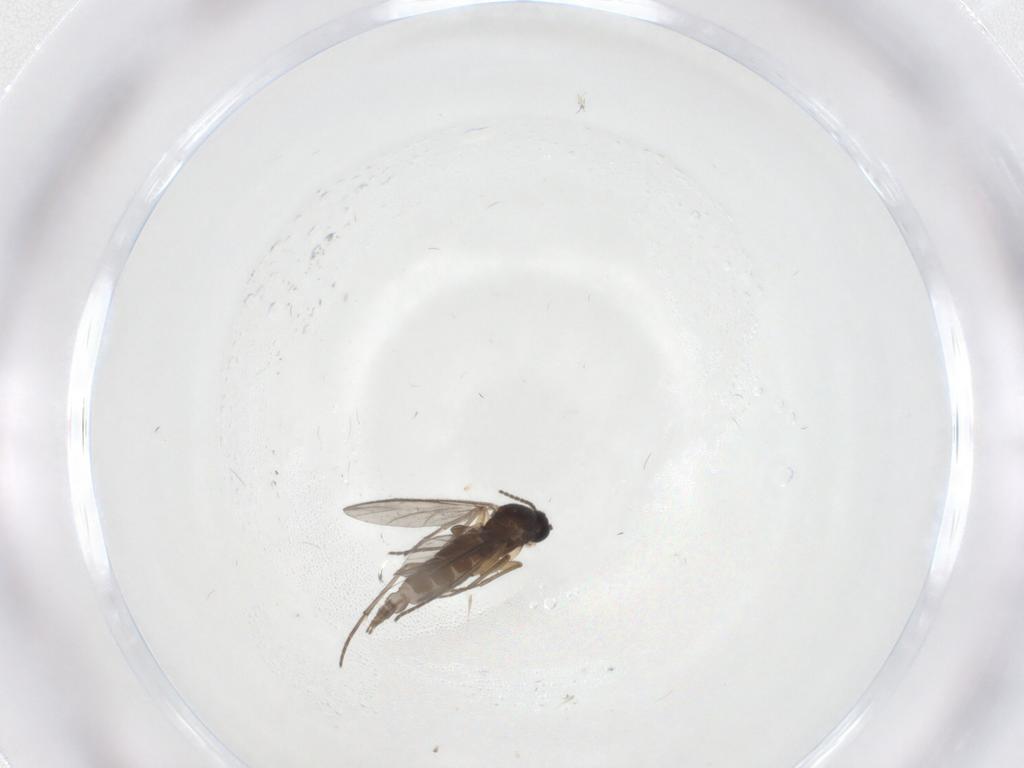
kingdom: Animalia
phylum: Arthropoda
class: Insecta
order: Diptera
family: Sciaridae
